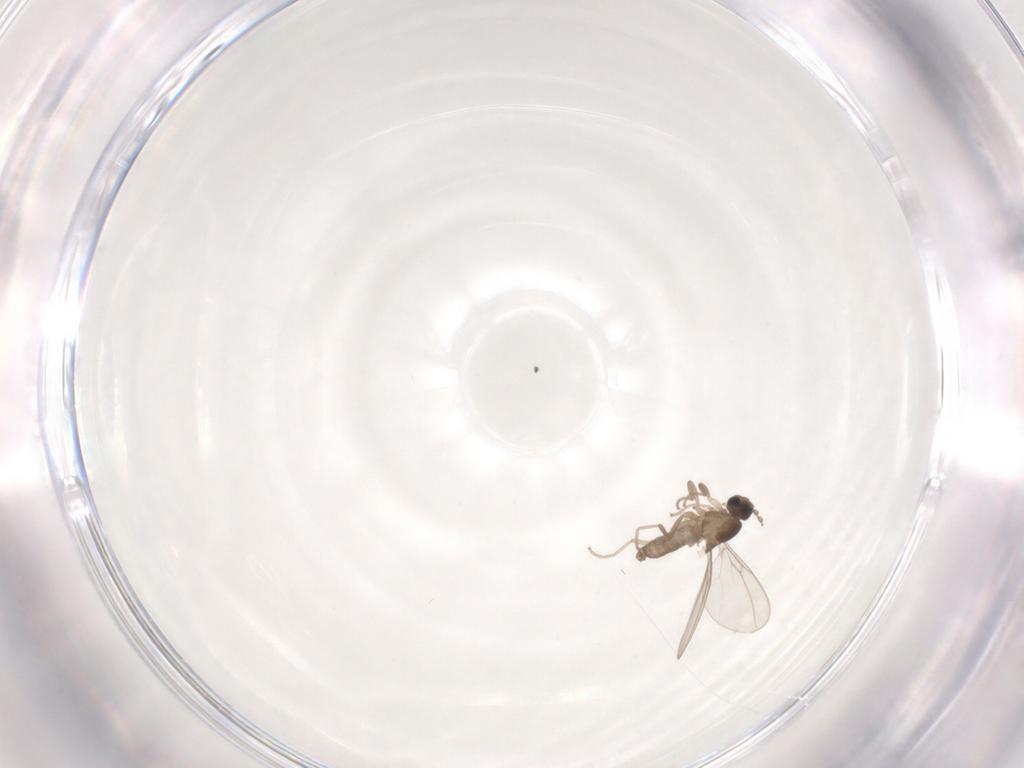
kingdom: Animalia
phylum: Arthropoda
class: Insecta
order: Diptera
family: Cecidomyiidae
